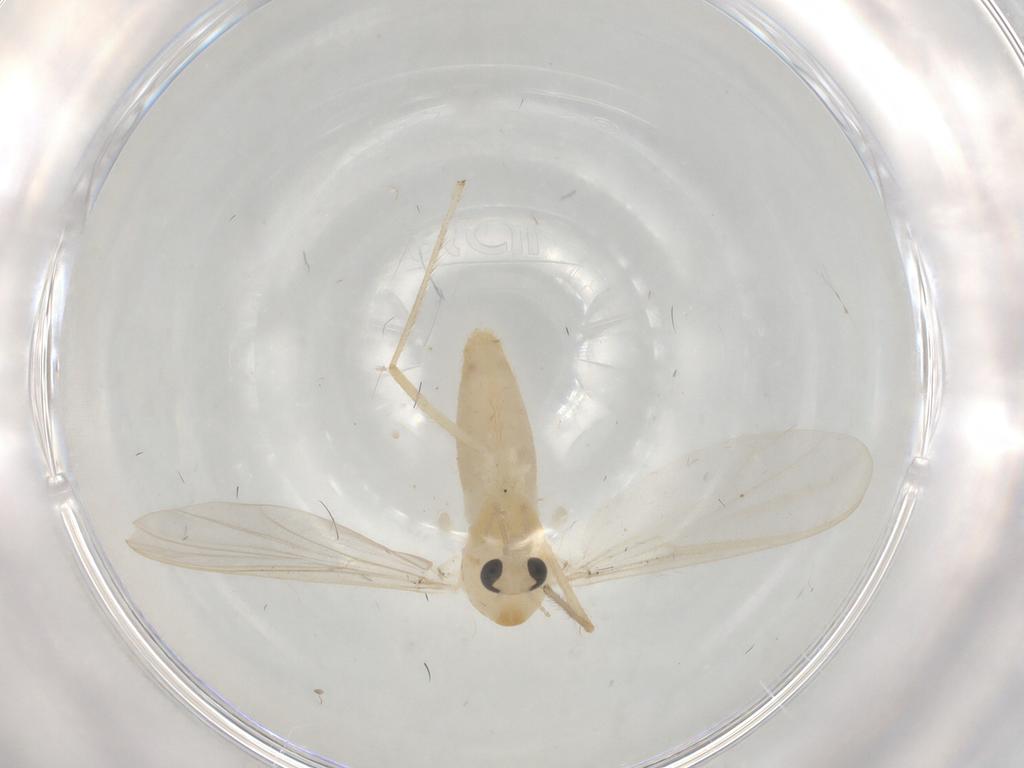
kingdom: Animalia
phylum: Arthropoda
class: Insecta
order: Diptera
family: Chironomidae
